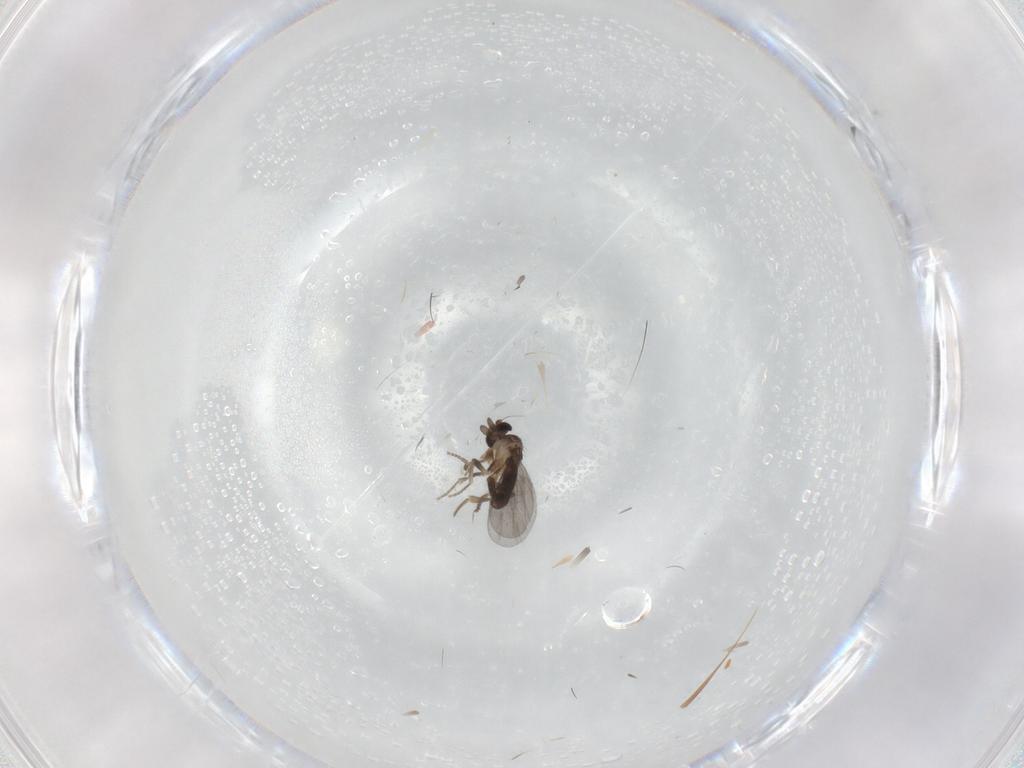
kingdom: Animalia
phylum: Arthropoda
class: Insecta
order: Diptera
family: Cecidomyiidae
